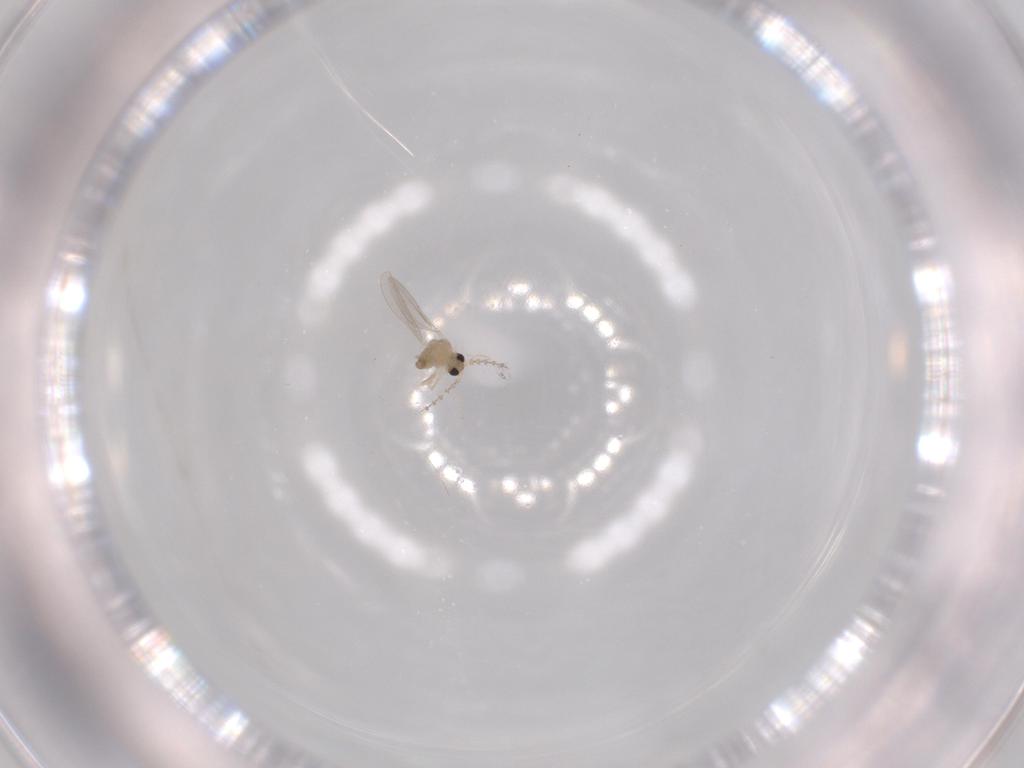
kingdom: Animalia
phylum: Arthropoda
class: Insecta
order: Diptera
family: Cecidomyiidae
